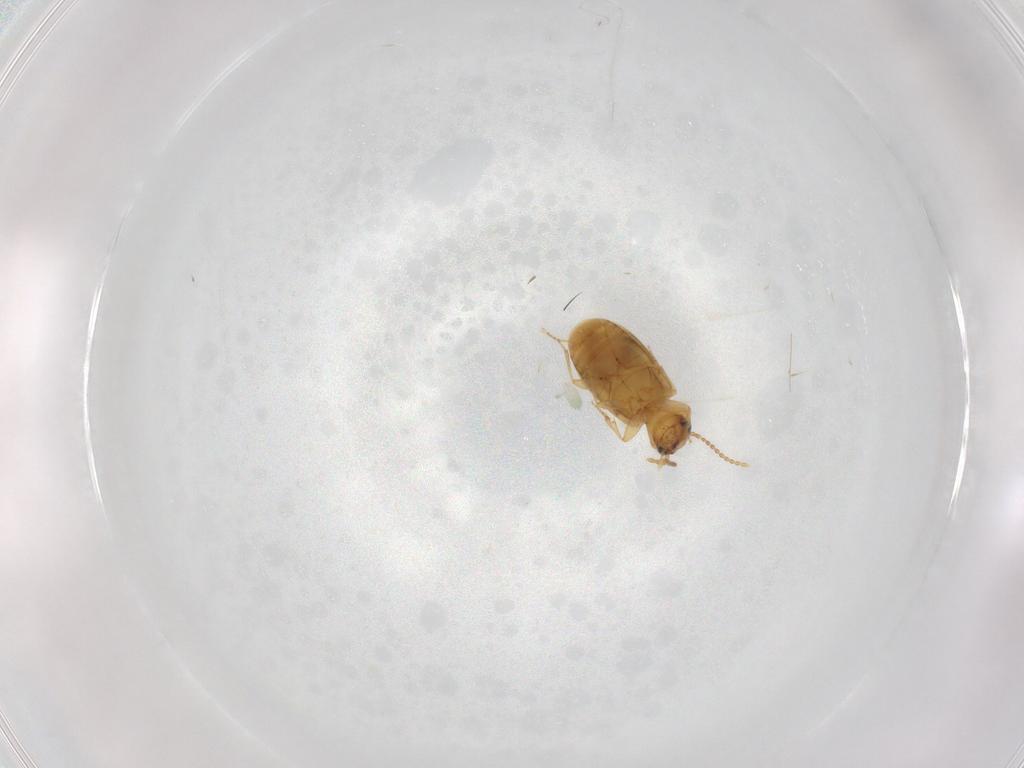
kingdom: Animalia
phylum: Arthropoda
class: Insecta
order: Coleoptera
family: Carabidae
